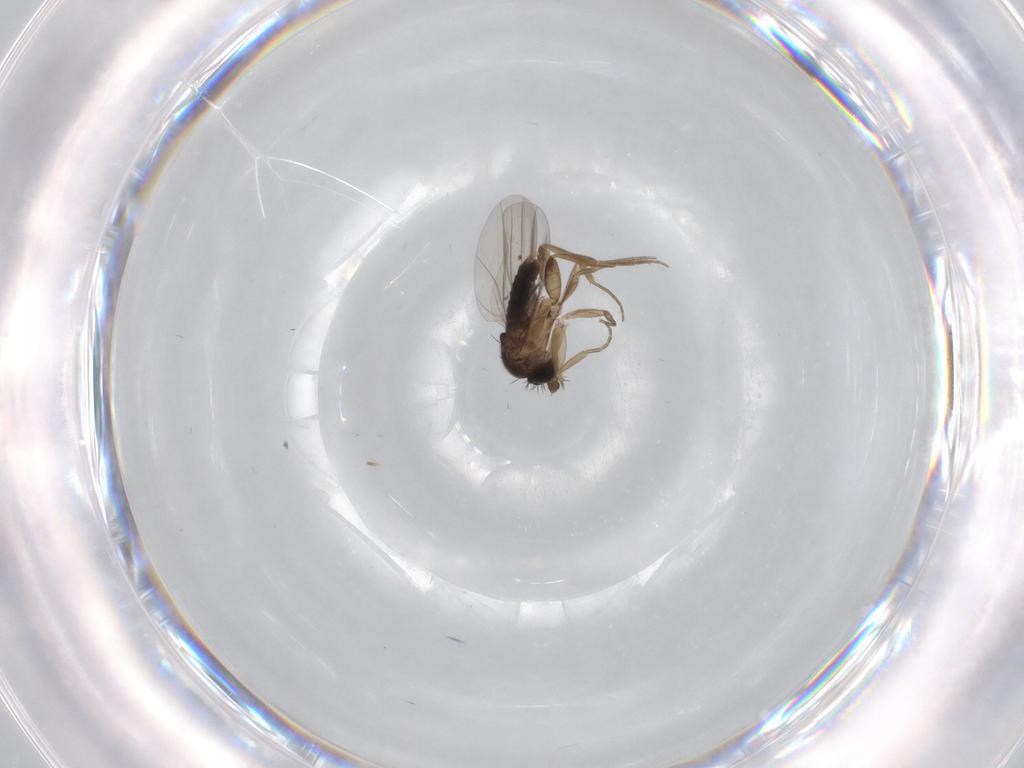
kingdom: Animalia
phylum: Arthropoda
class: Insecta
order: Diptera
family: Phoridae
